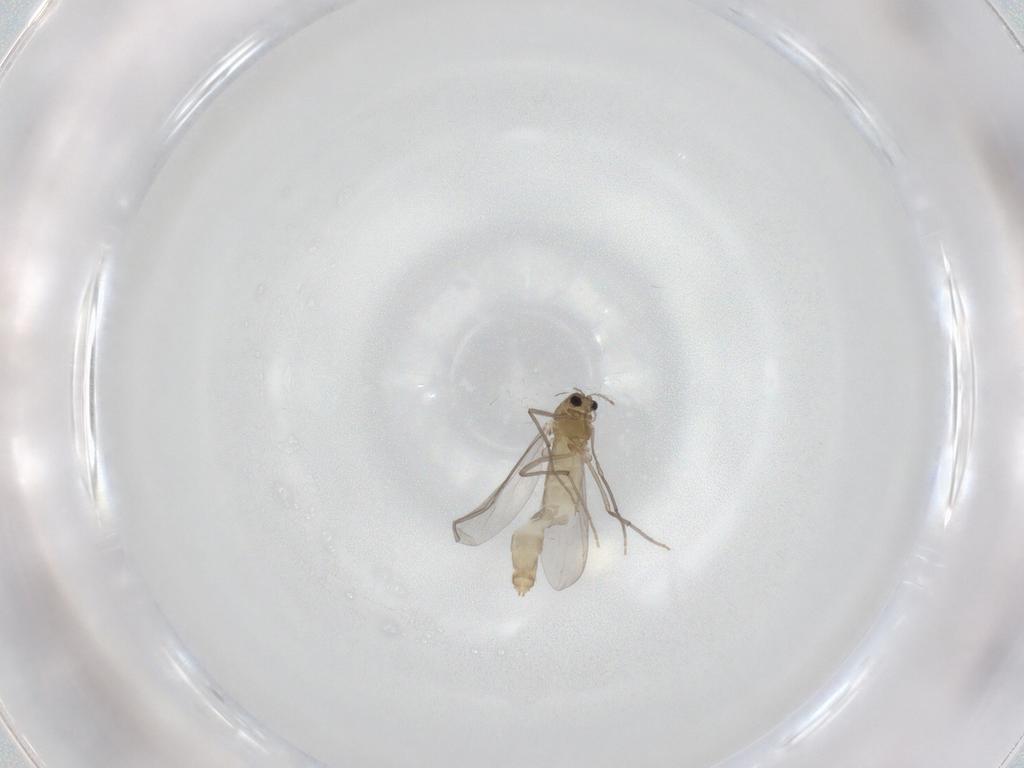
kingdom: Animalia
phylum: Arthropoda
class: Insecta
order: Diptera
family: Chironomidae
